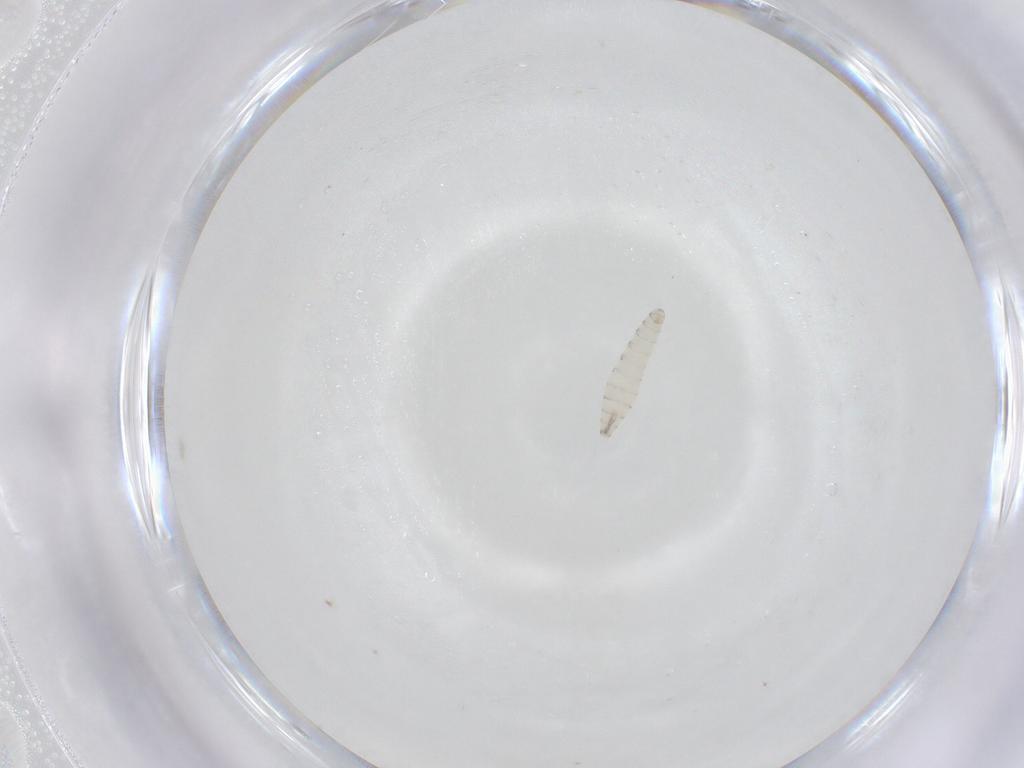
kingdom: Animalia
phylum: Arthropoda
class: Insecta
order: Diptera
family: Calliphoridae
